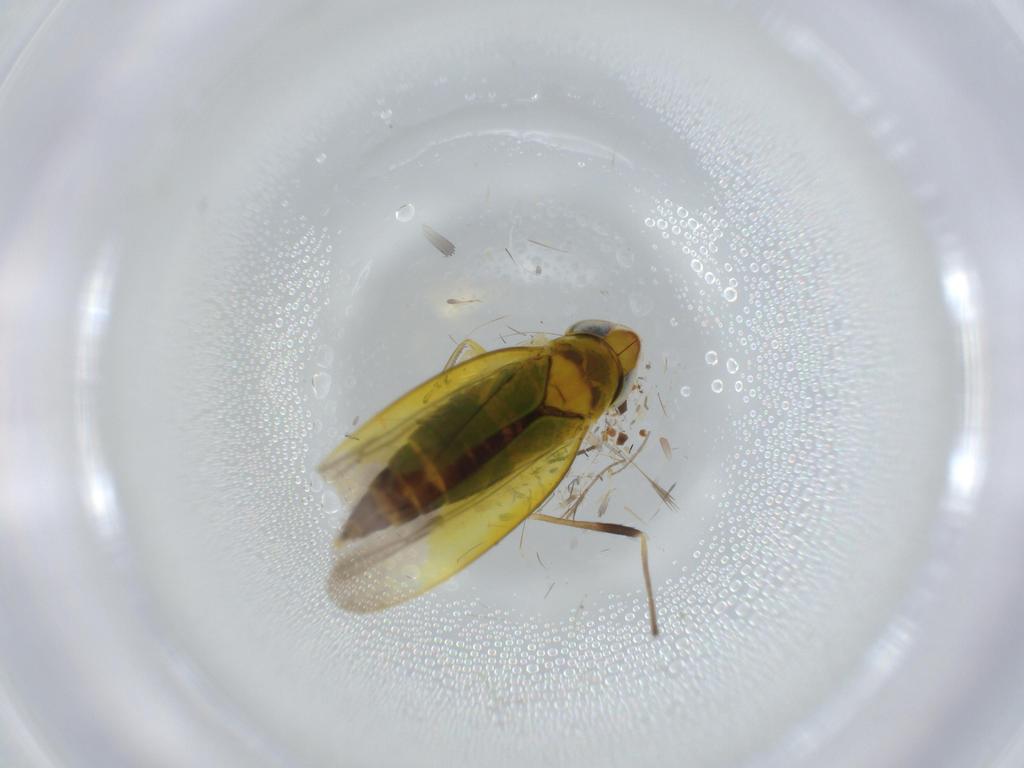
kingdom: Animalia
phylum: Arthropoda
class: Insecta
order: Hemiptera
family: Cicadellidae
